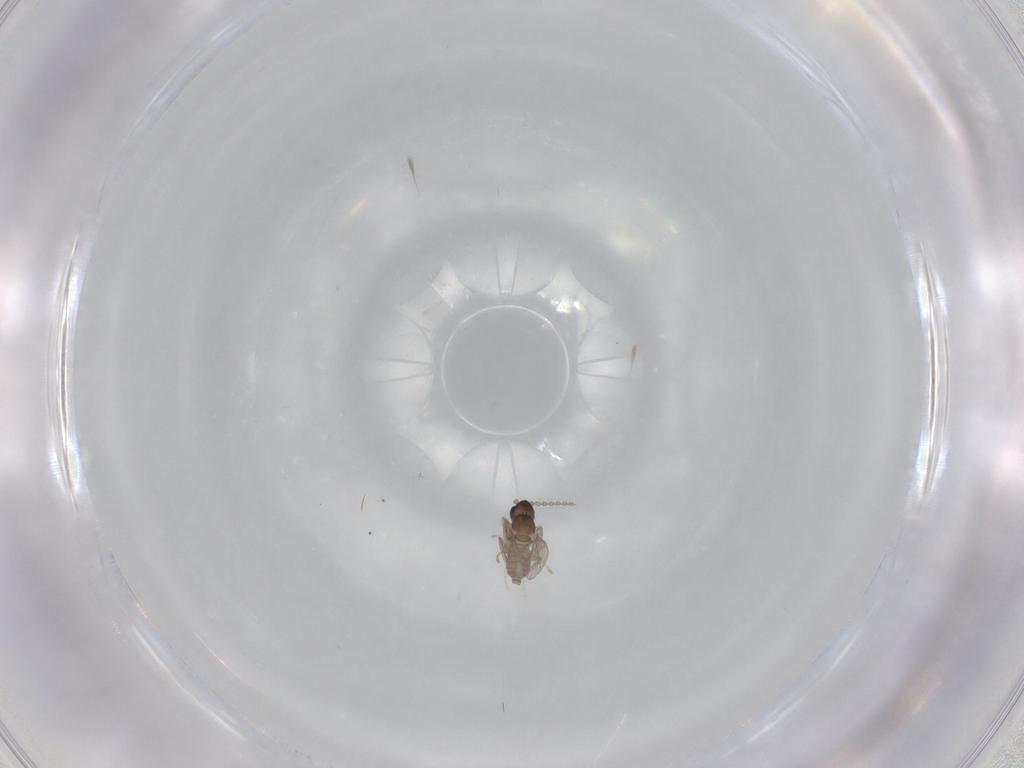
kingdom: Animalia
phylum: Arthropoda
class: Insecta
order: Diptera
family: Cecidomyiidae
